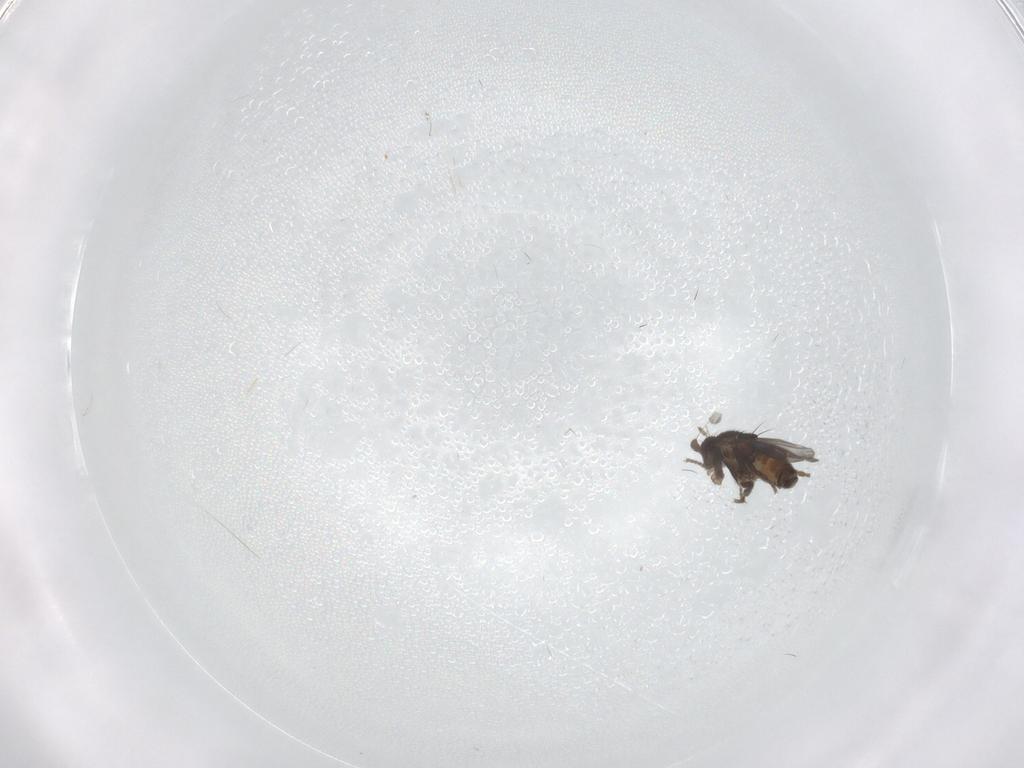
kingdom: Animalia
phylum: Arthropoda
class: Insecta
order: Diptera
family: Sphaeroceridae
